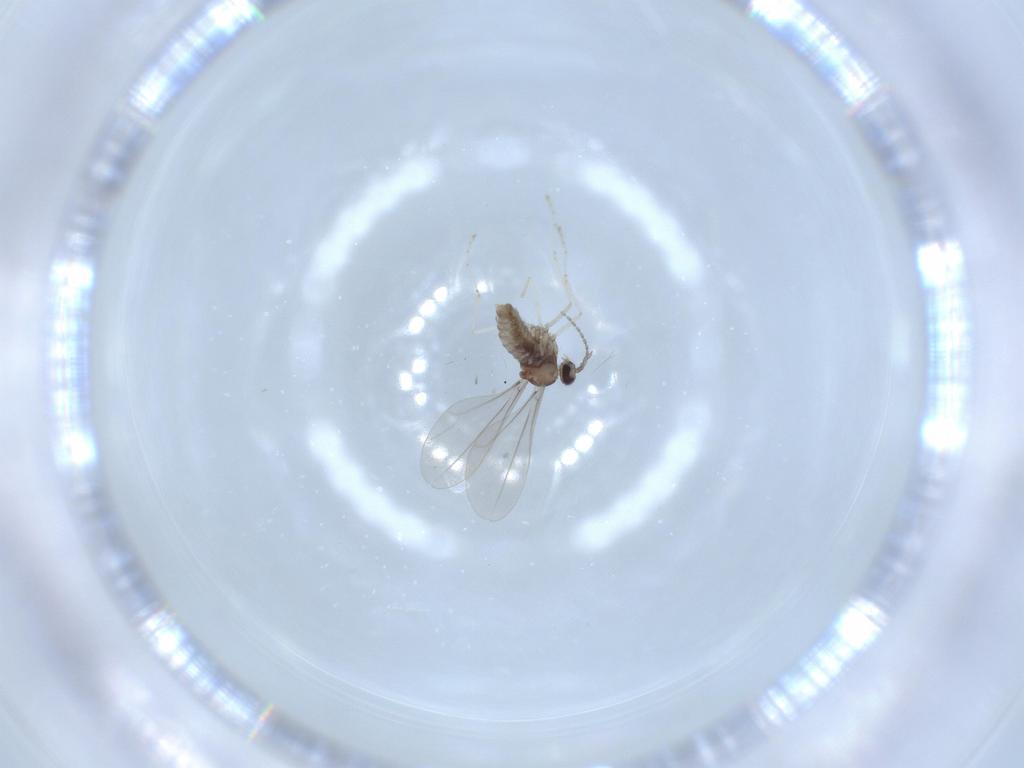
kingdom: Animalia
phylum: Arthropoda
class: Insecta
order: Diptera
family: Cecidomyiidae
